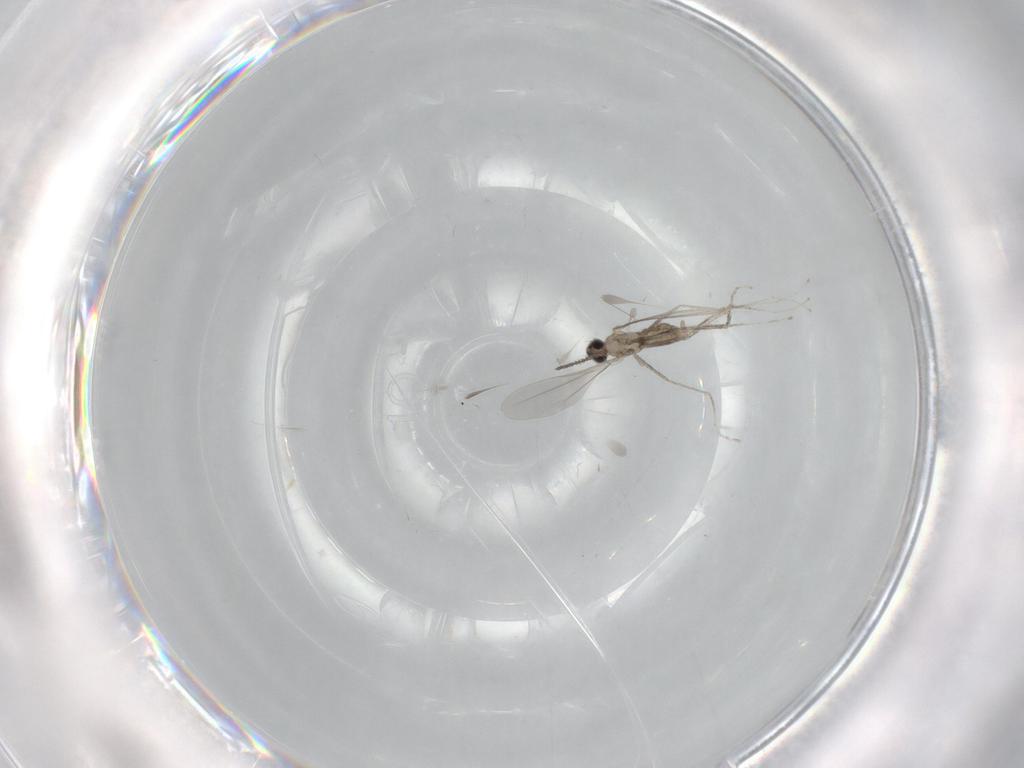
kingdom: Animalia
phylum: Arthropoda
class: Insecta
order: Diptera
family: Cecidomyiidae
